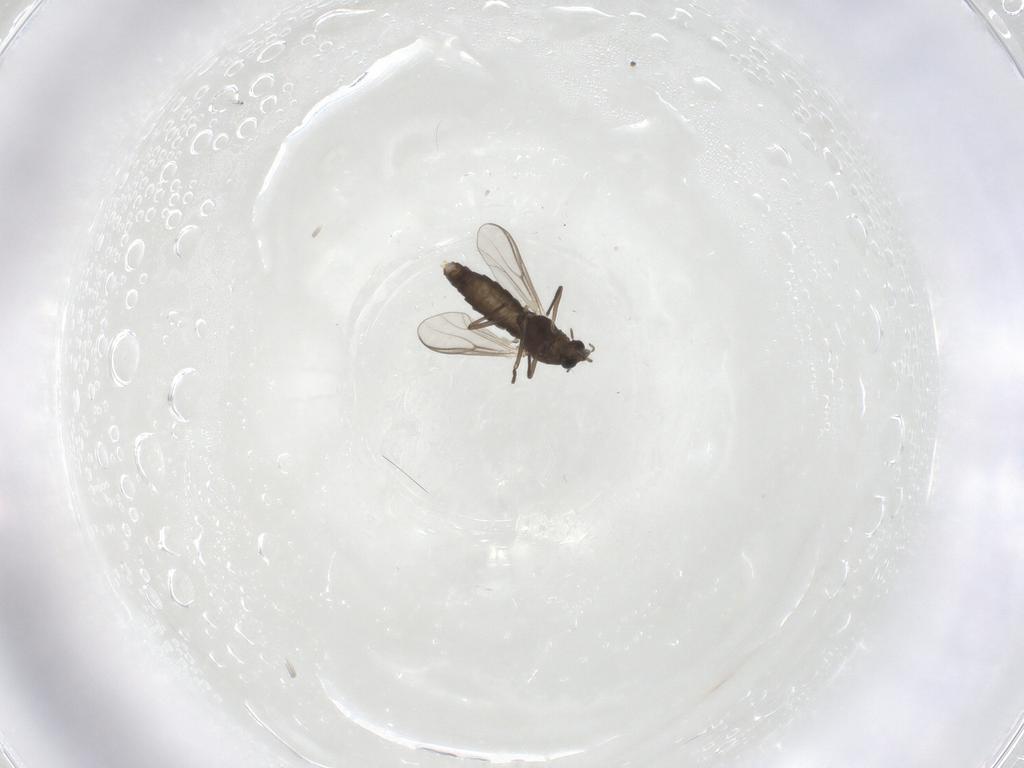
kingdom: Animalia
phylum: Arthropoda
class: Insecta
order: Diptera
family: Chironomidae
